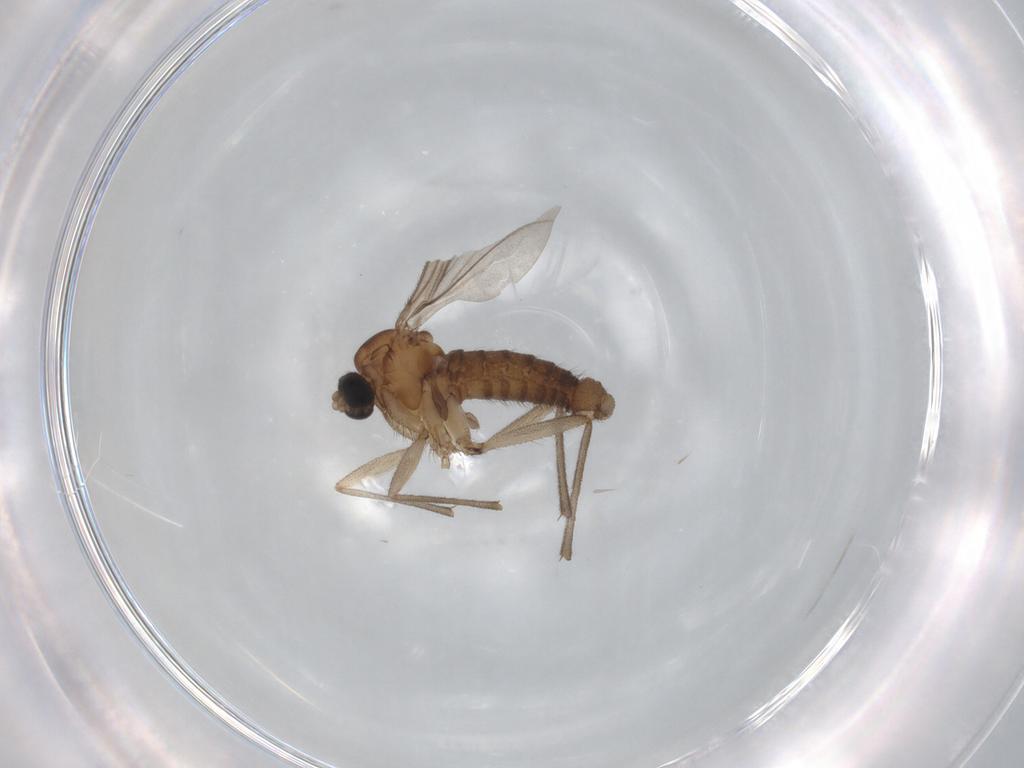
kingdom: Animalia
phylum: Arthropoda
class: Insecta
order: Diptera
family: Sciaridae
